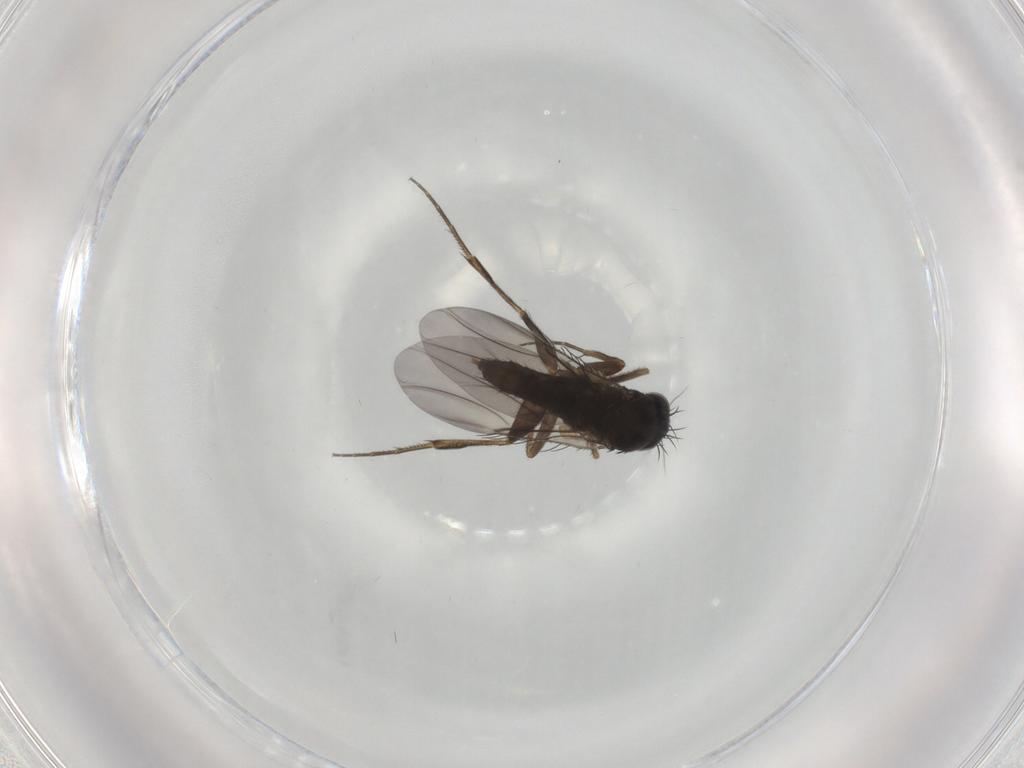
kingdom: Animalia
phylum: Arthropoda
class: Insecta
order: Diptera
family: Phoridae
